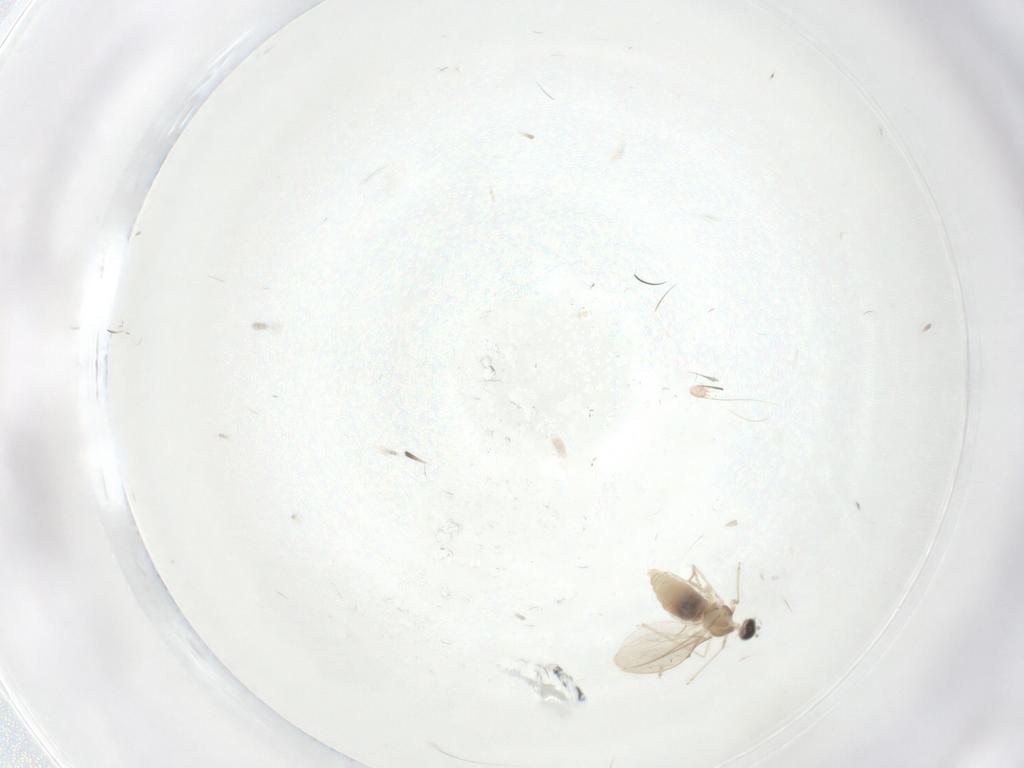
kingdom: Animalia
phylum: Arthropoda
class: Insecta
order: Diptera
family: Cecidomyiidae
